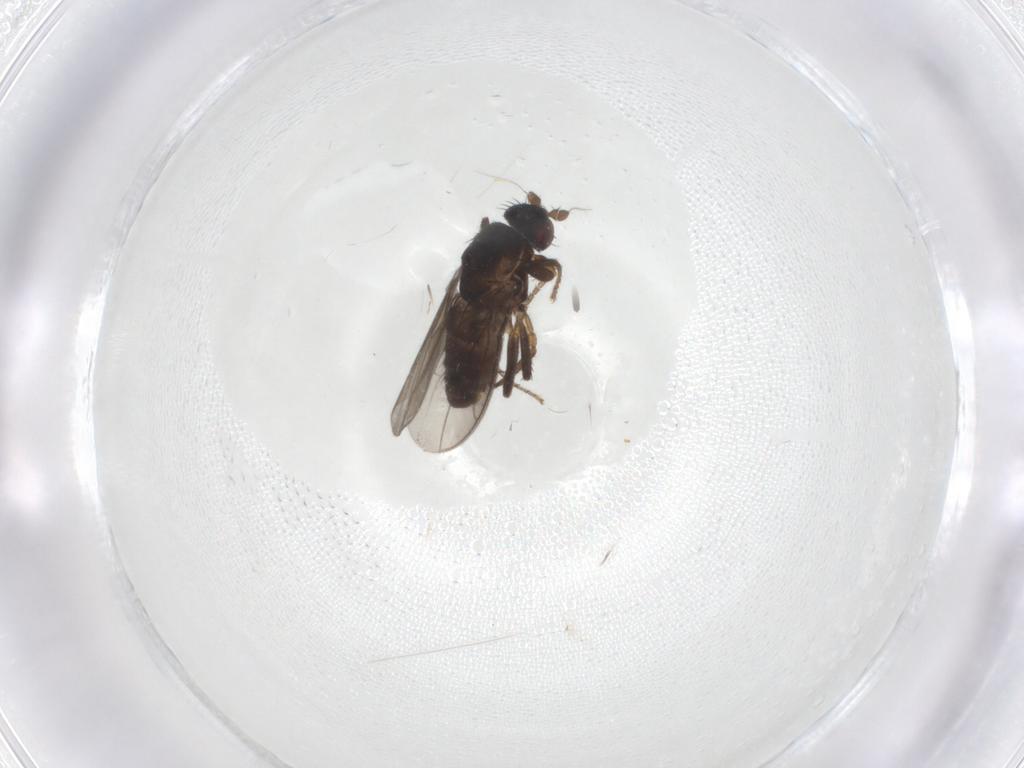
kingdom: Animalia
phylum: Arthropoda
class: Insecta
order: Diptera
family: Sphaeroceridae
